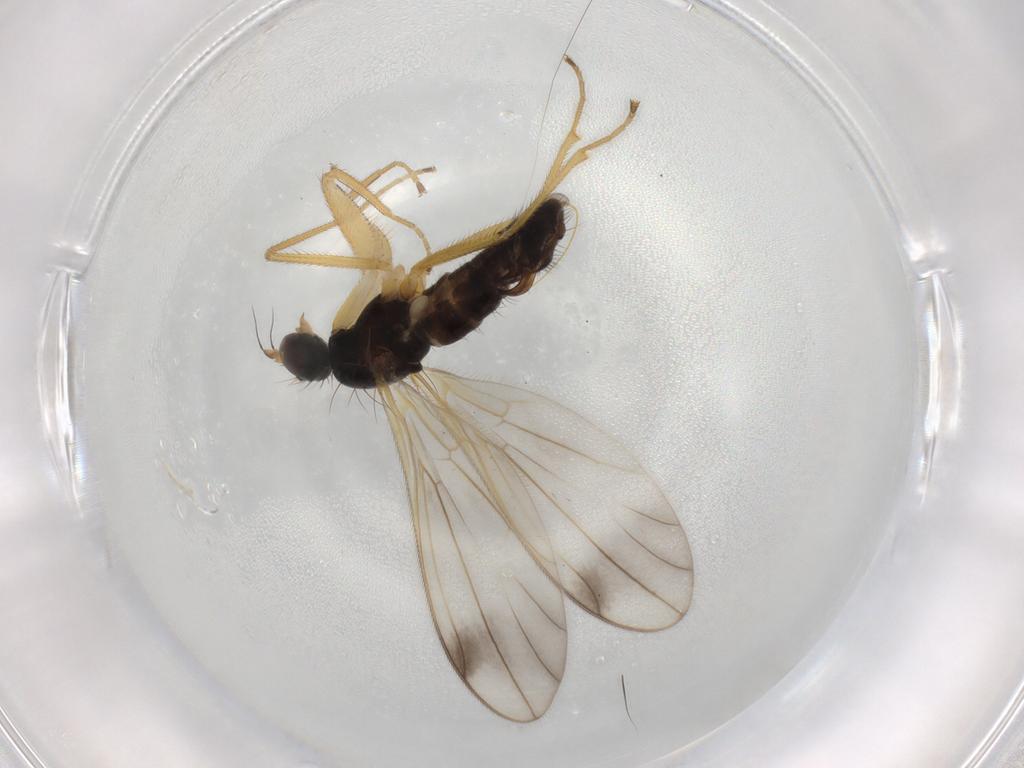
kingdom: Animalia
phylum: Arthropoda
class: Insecta
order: Diptera
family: Empididae
